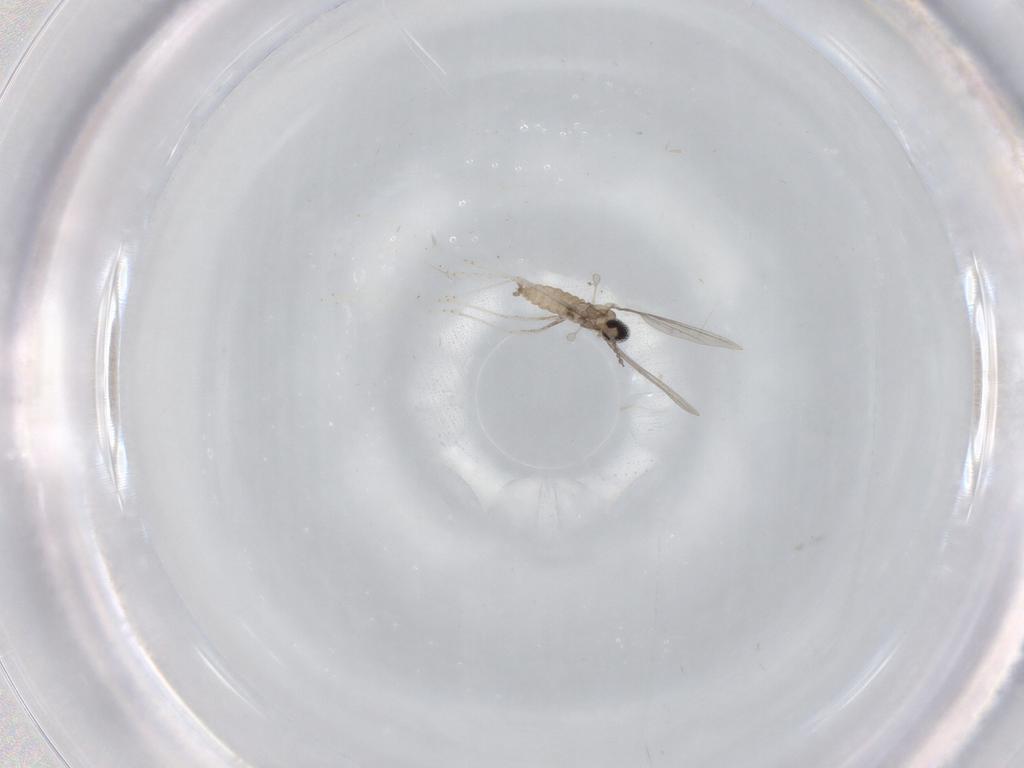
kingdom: Animalia
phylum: Arthropoda
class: Insecta
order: Diptera
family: Cecidomyiidae
